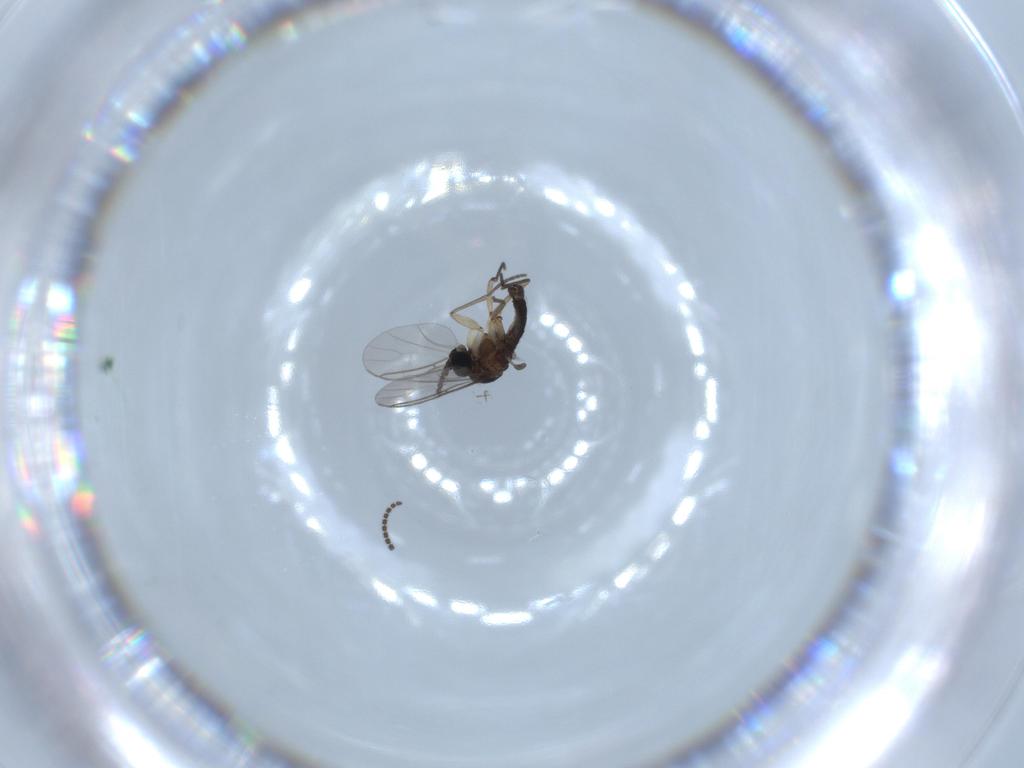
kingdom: Animalia
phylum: Arthropoda
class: Insecta
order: Diptera
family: Sciaridae
